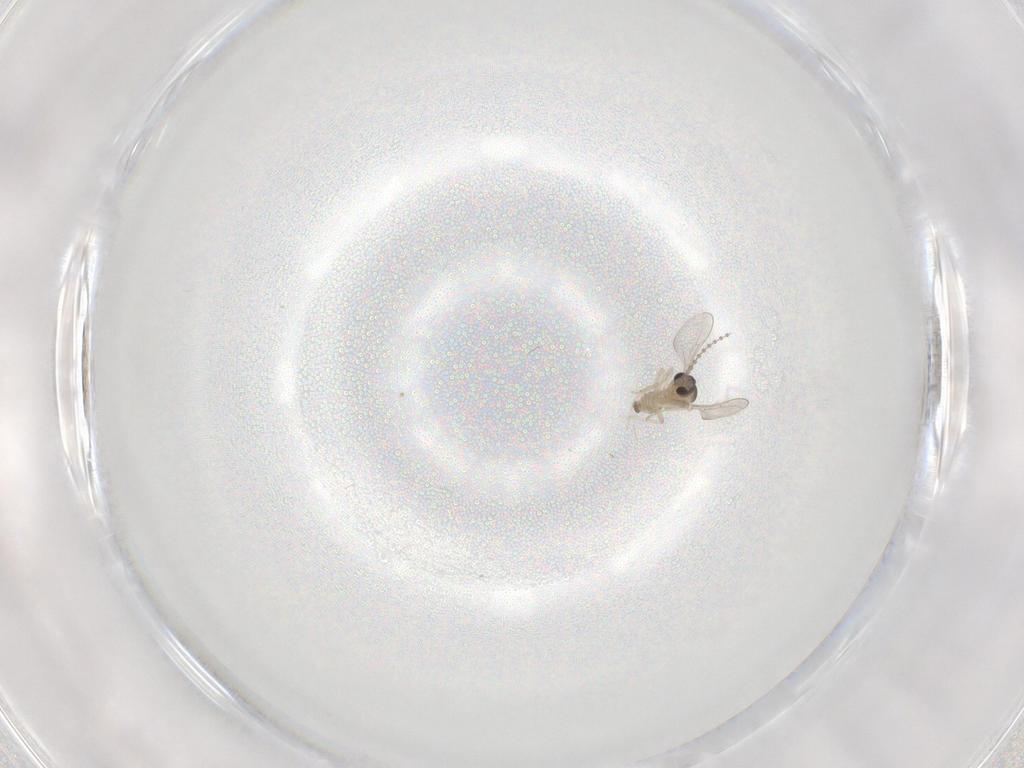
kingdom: Animalia
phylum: Arthropoda
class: Insecta
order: Diptera
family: Cecidomyiidae
